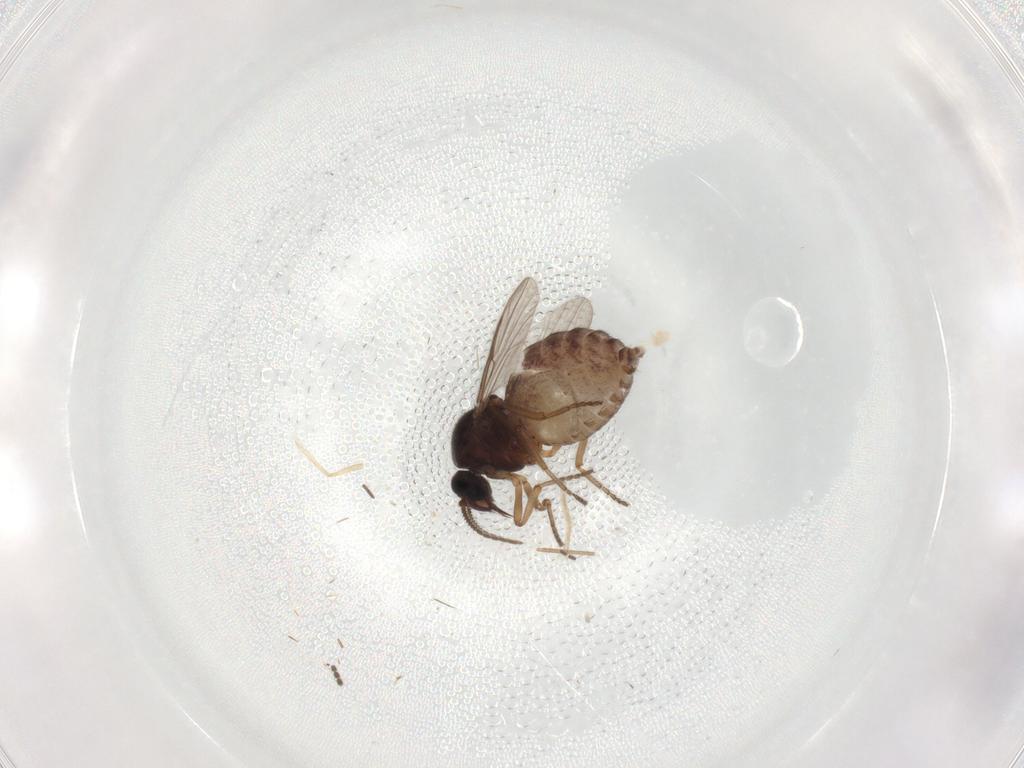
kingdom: Animalia
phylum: Arthropoda
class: Insecta
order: Diptera
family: Ceratopogonidae
